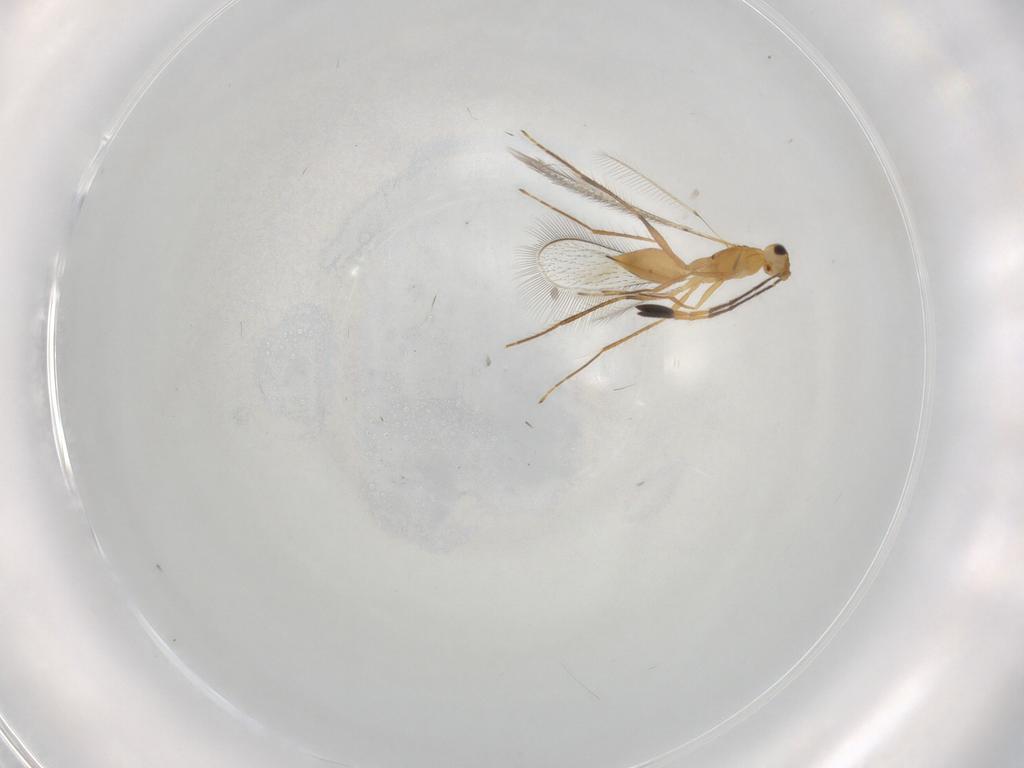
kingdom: Animalia
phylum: Arthropoda
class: Insecta
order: Hymenoptera
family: Mymaridae
